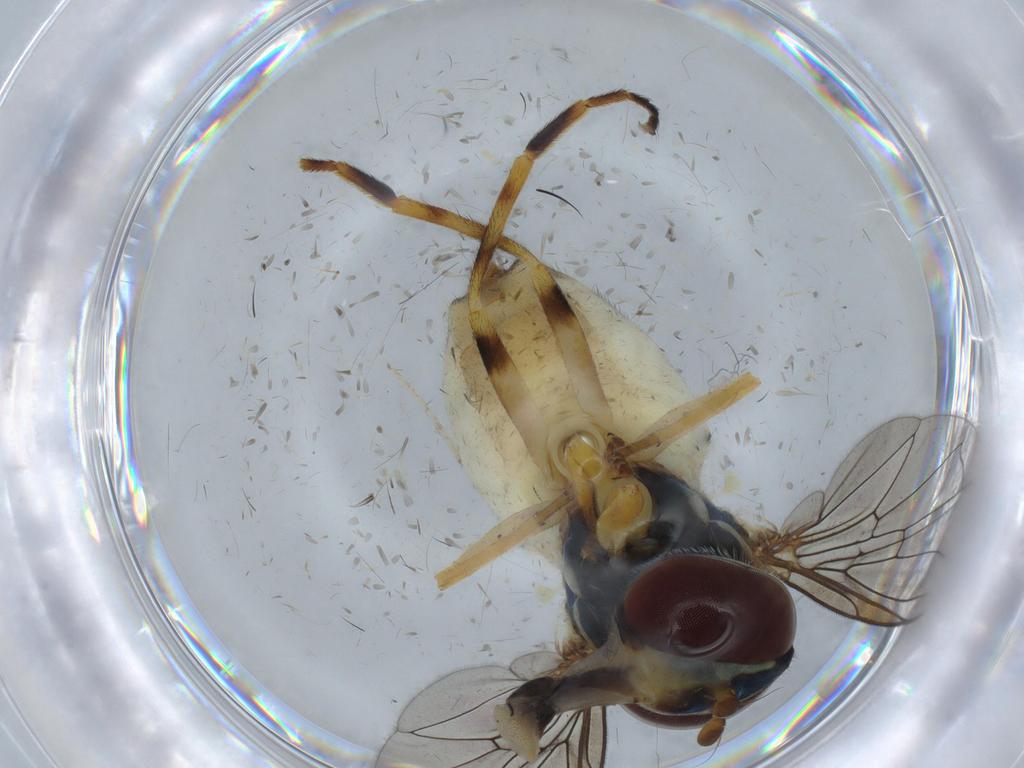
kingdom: Animalia
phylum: Arthropoda
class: Insecta
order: Diptera
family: Syrphidae
